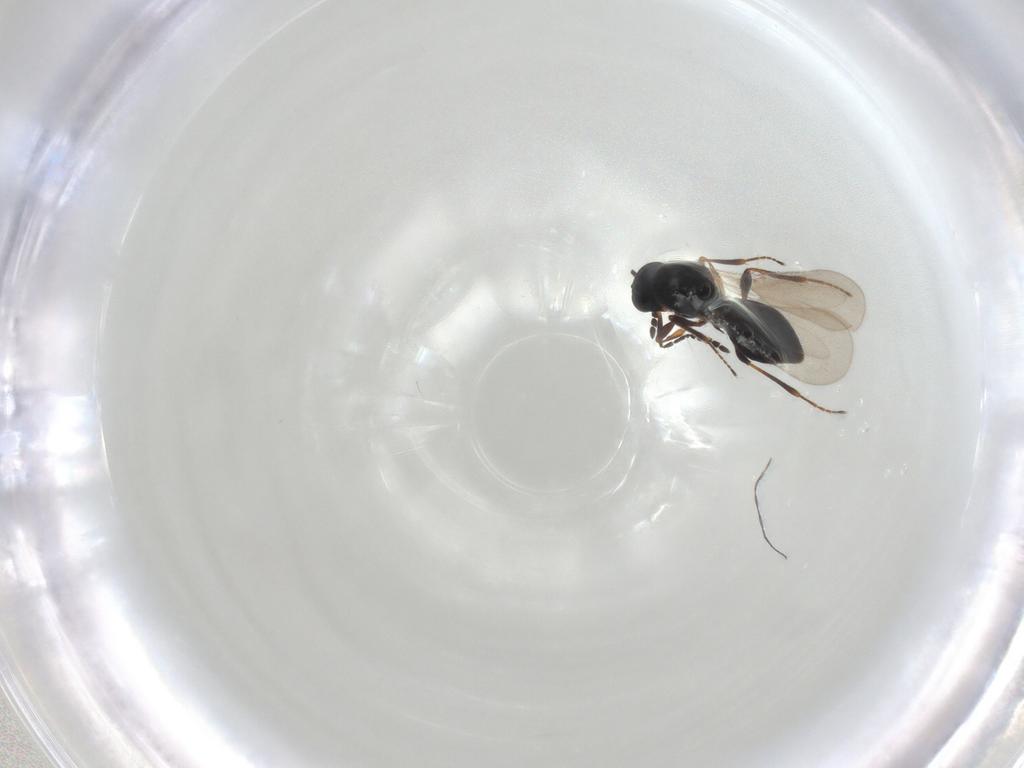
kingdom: Animalia
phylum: Arthropoda
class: Insecta
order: Hymenoptera
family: Platygastridae
